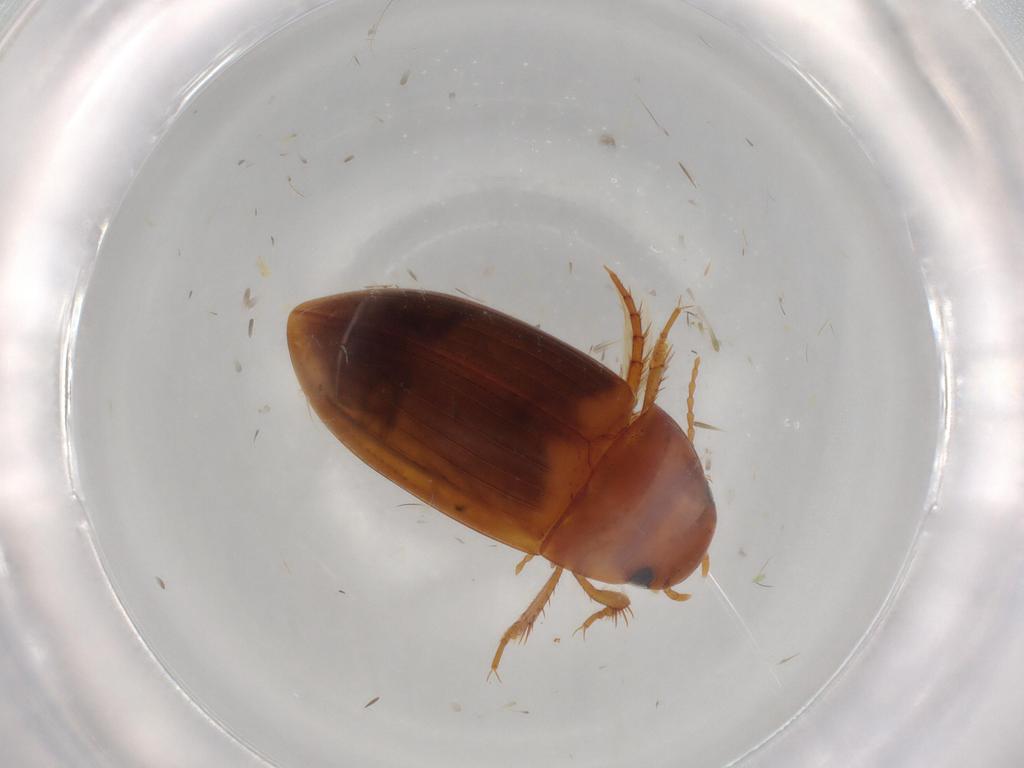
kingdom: Animalia
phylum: Arthropoda
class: Insecta
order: Coleoptera
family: Dytiscidae
